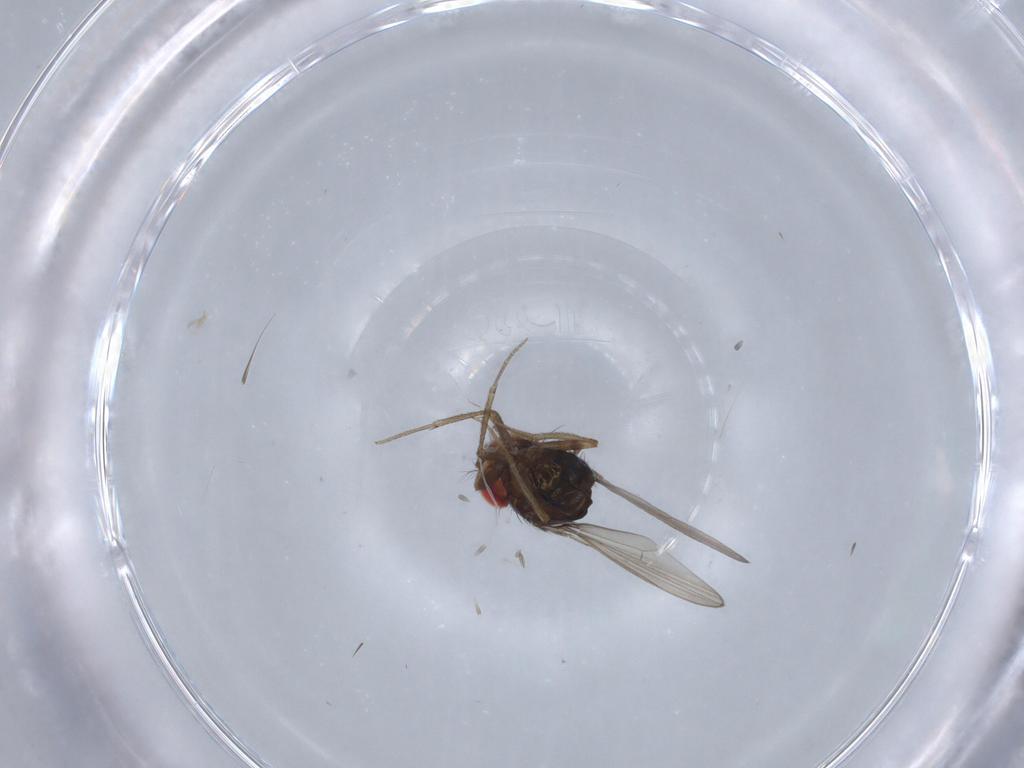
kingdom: Animalia
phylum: Arthropoda
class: Insecta
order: Diptera
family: Drosophilidae
